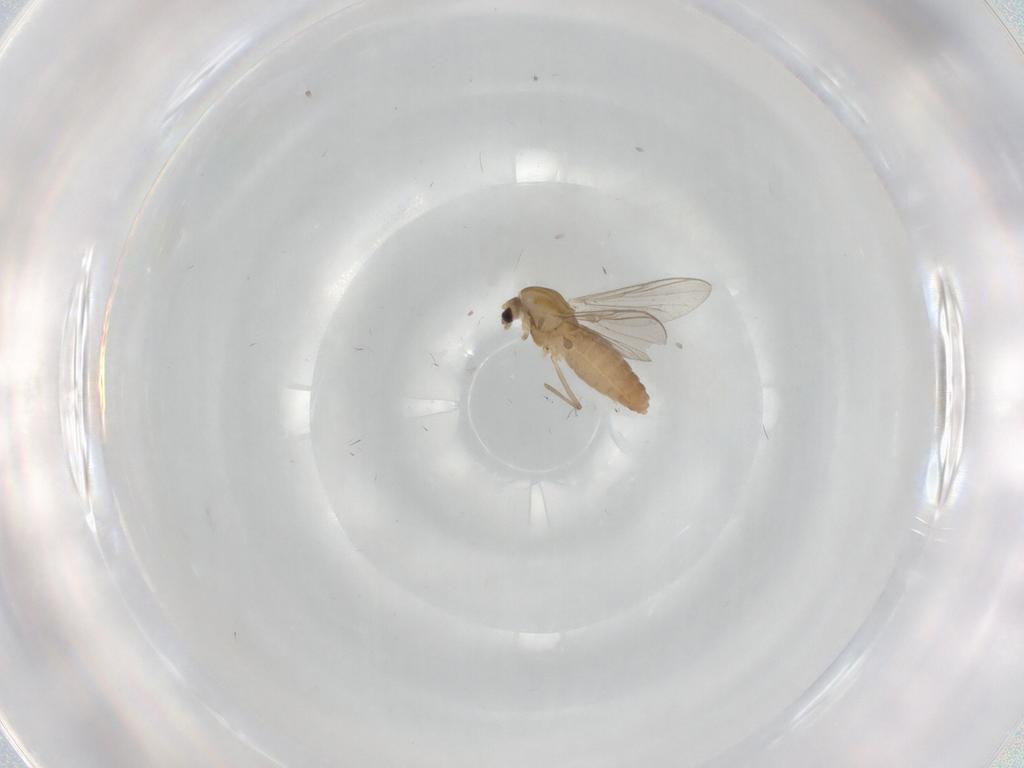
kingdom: Animalia
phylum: Arthropoda
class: Insecta
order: Diptera
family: Chironomidae
